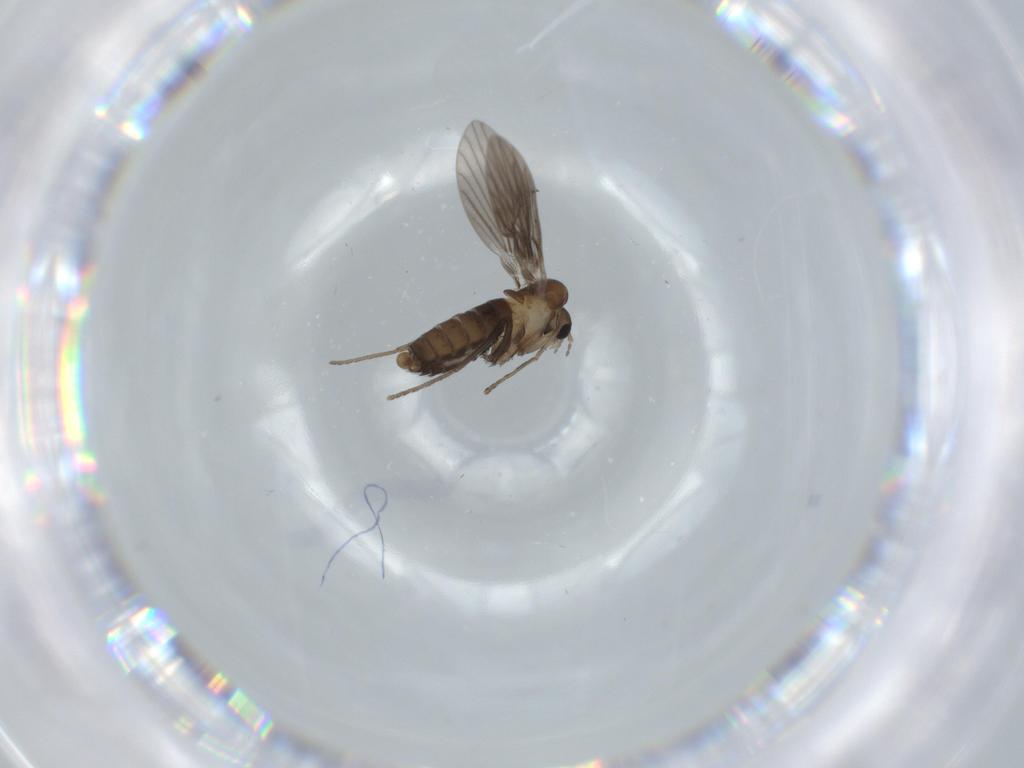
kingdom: Animalia
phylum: Arthropoda
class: Insecta
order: Diptera
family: Psychodidae
